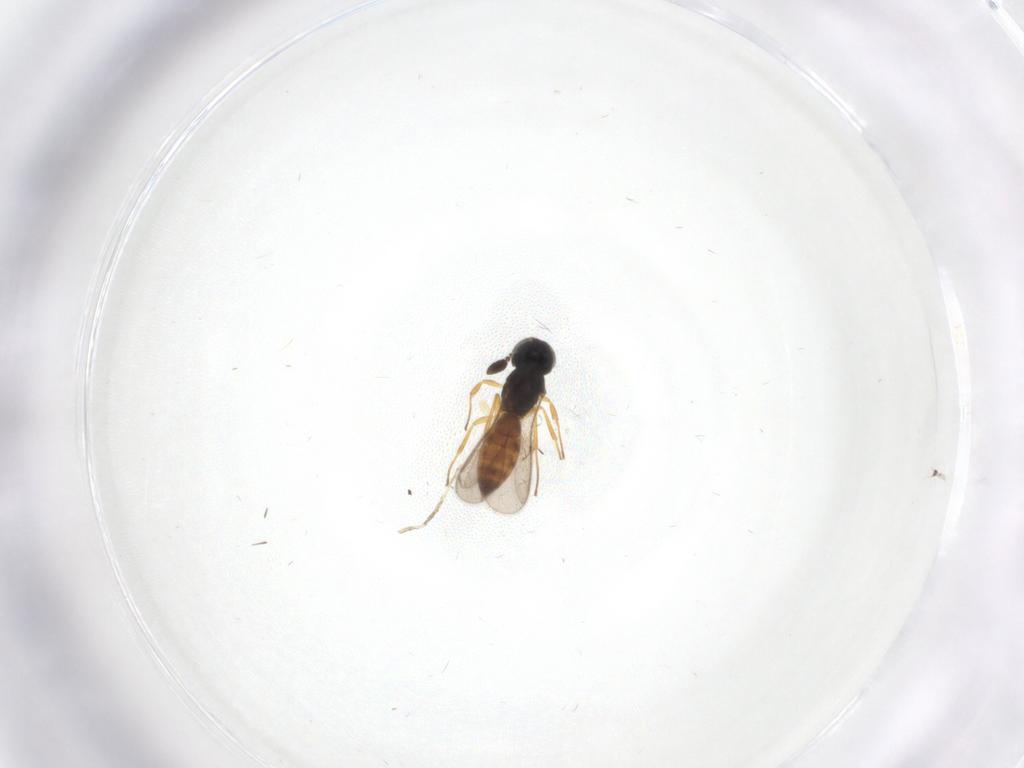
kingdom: Animalia
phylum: Arthropoda
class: Insecta
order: Hymenoptera
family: Scelionidae
